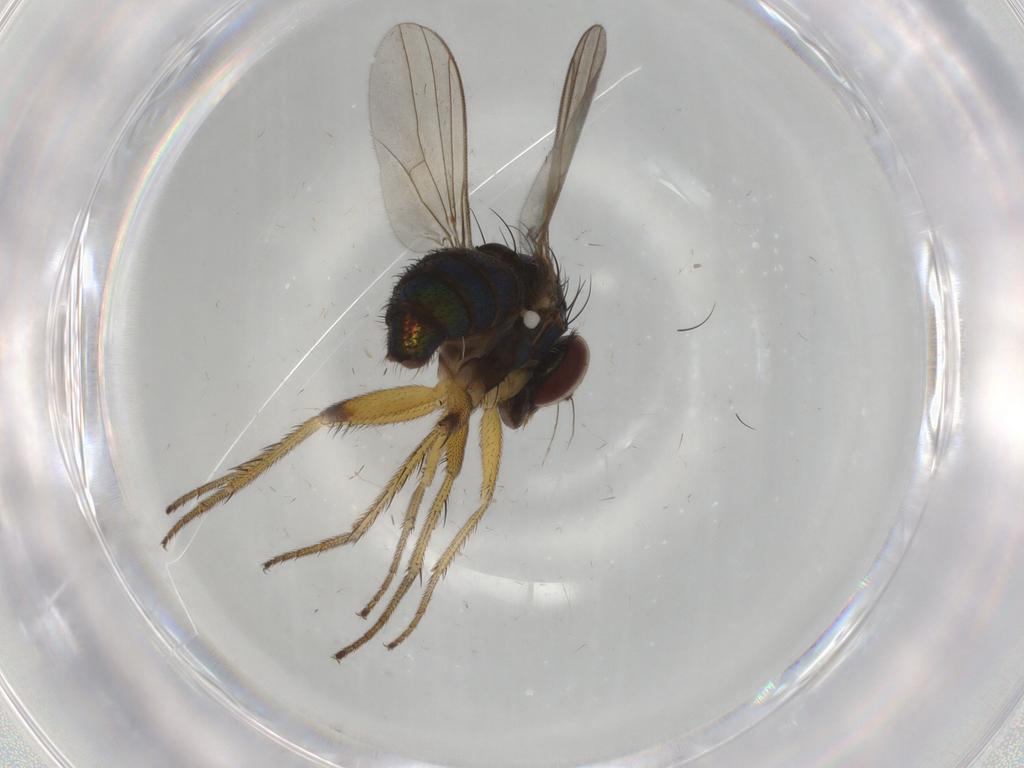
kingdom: Animalia
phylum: Arthropoda
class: Insecta
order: Diptera
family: Dolichopodidae
